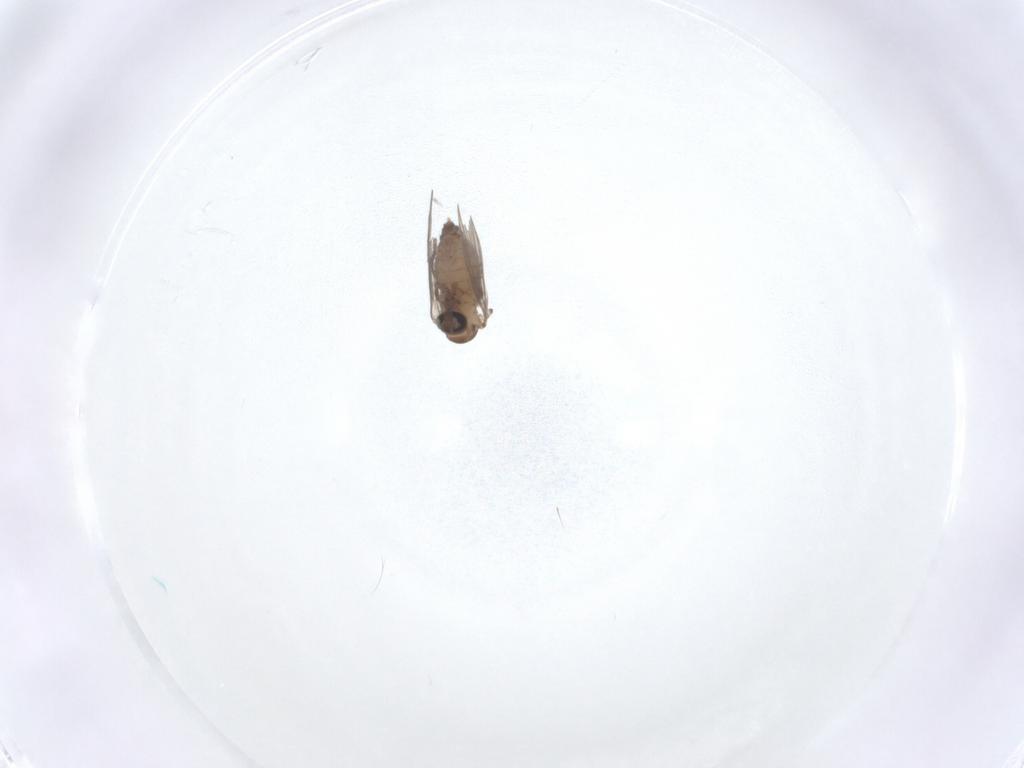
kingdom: Animalia
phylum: Arthropoda
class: Insecta
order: Diptera
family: Psychodidae
